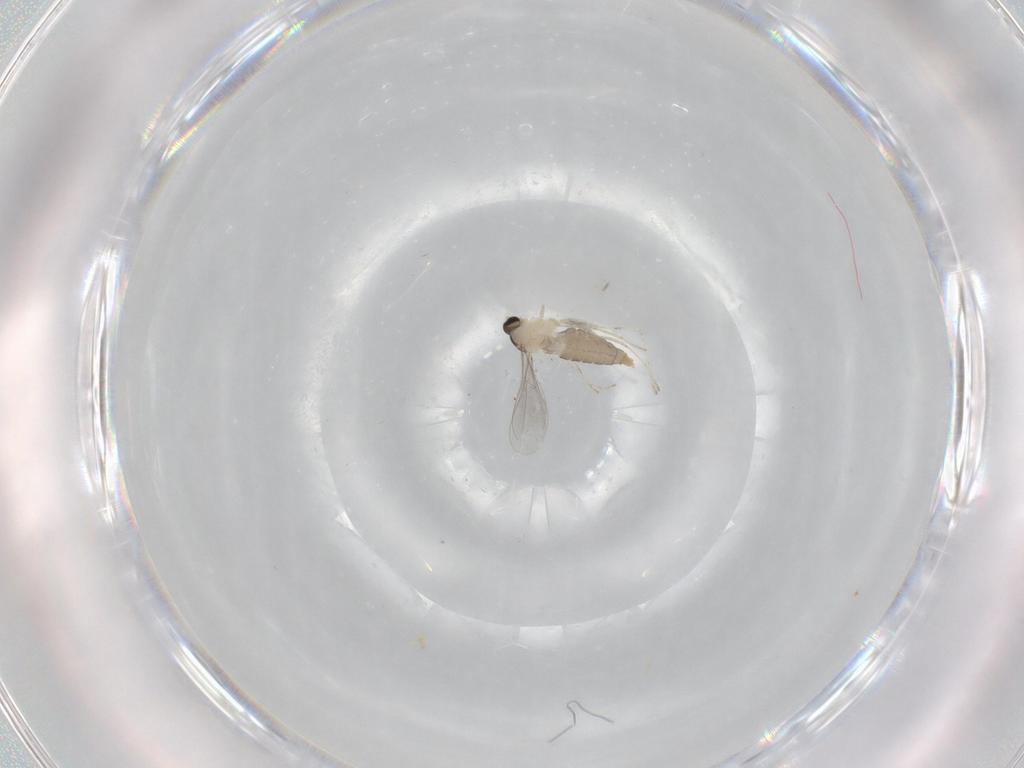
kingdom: Animalia
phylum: Arthropoda
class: Insecta
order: Diptera
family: Cecidomyiidae
